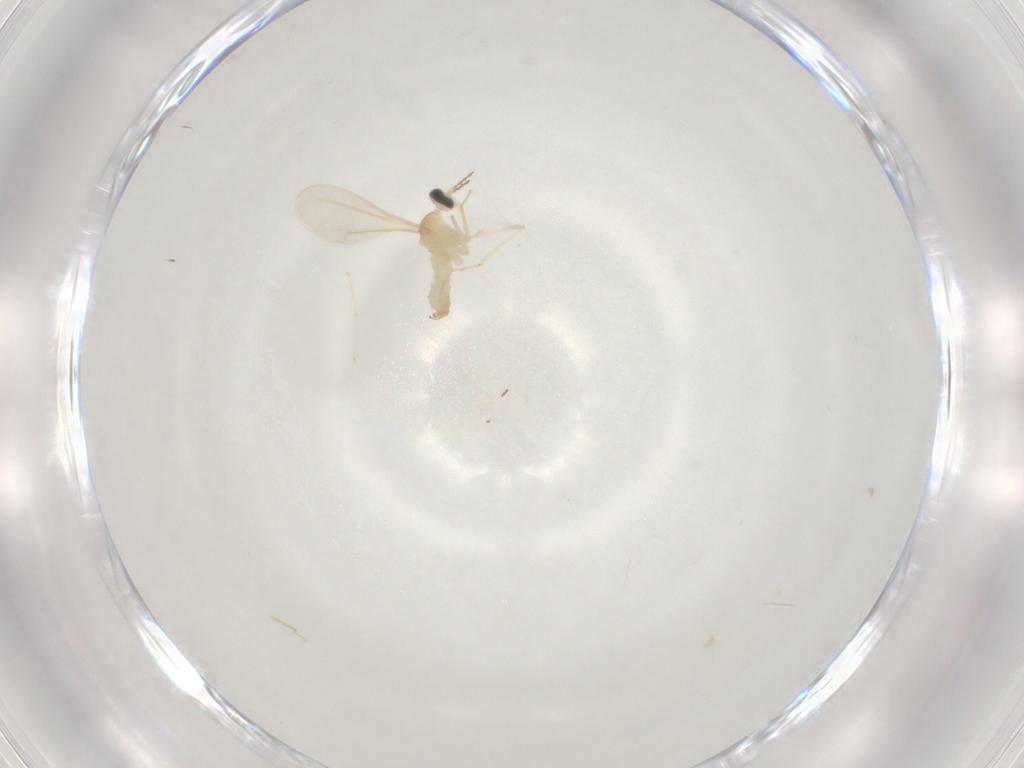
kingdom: Animalia
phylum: Arthropoda
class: Insecta
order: Diptera
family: Cecidomyiidae
